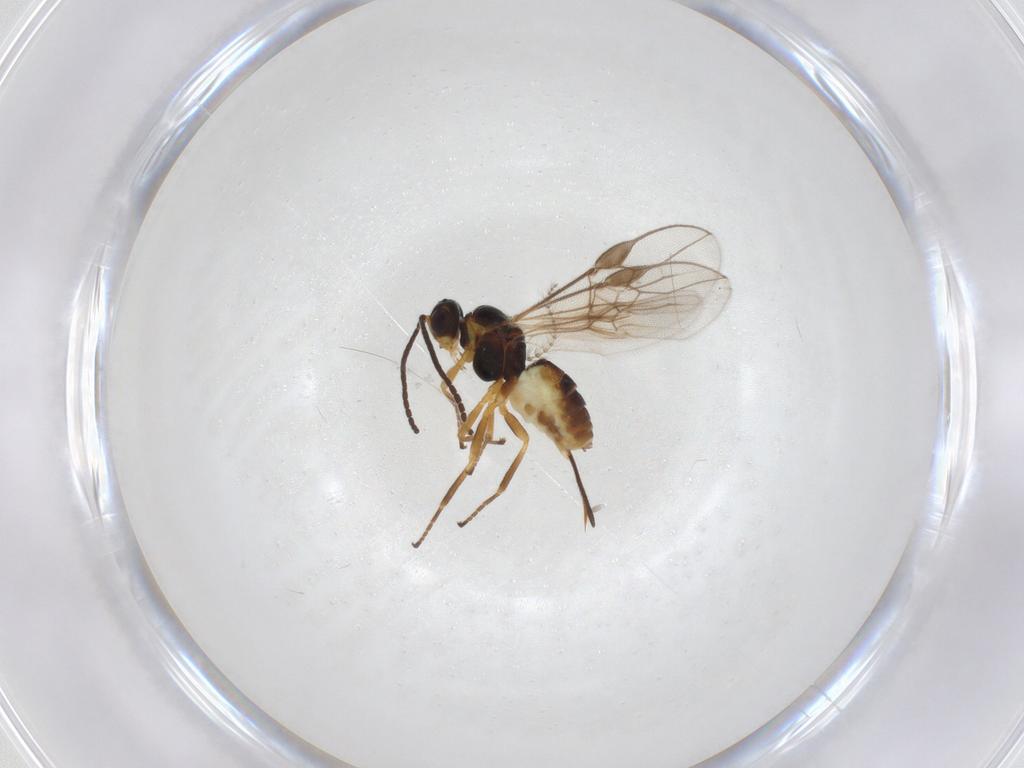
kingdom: Animalia
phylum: Arthropoda
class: Insecta
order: Hymenoptera
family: Braconidae
